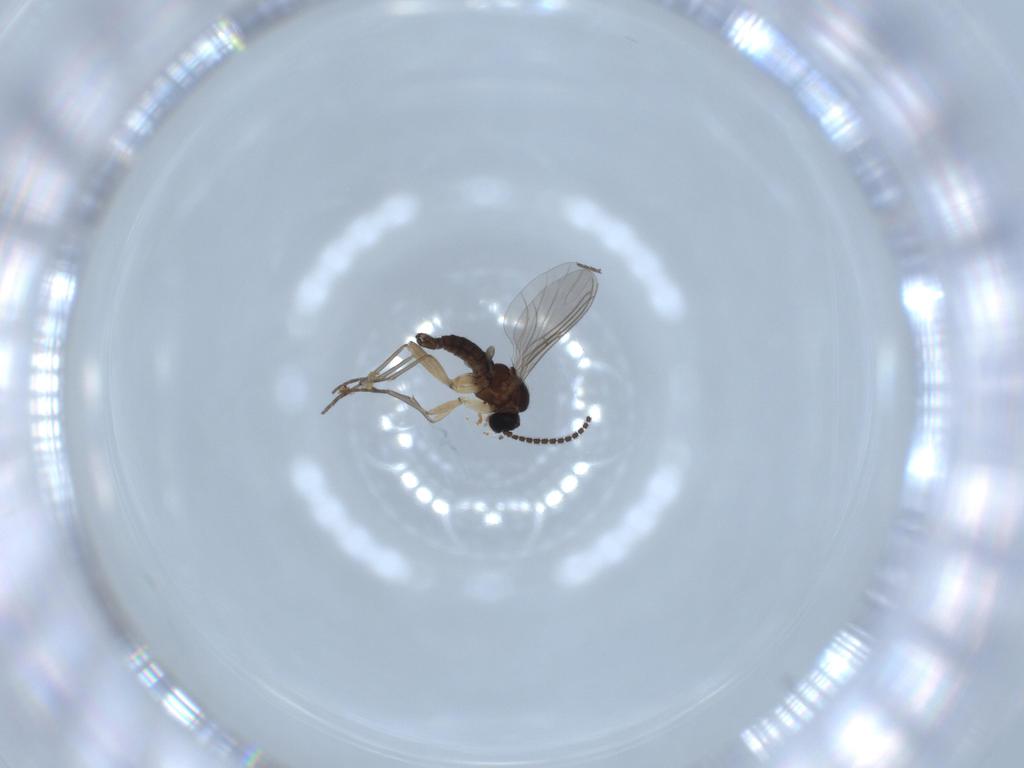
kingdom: Animalia
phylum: Arthropoda
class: Insecta
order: Diptera
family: Sciaridae
